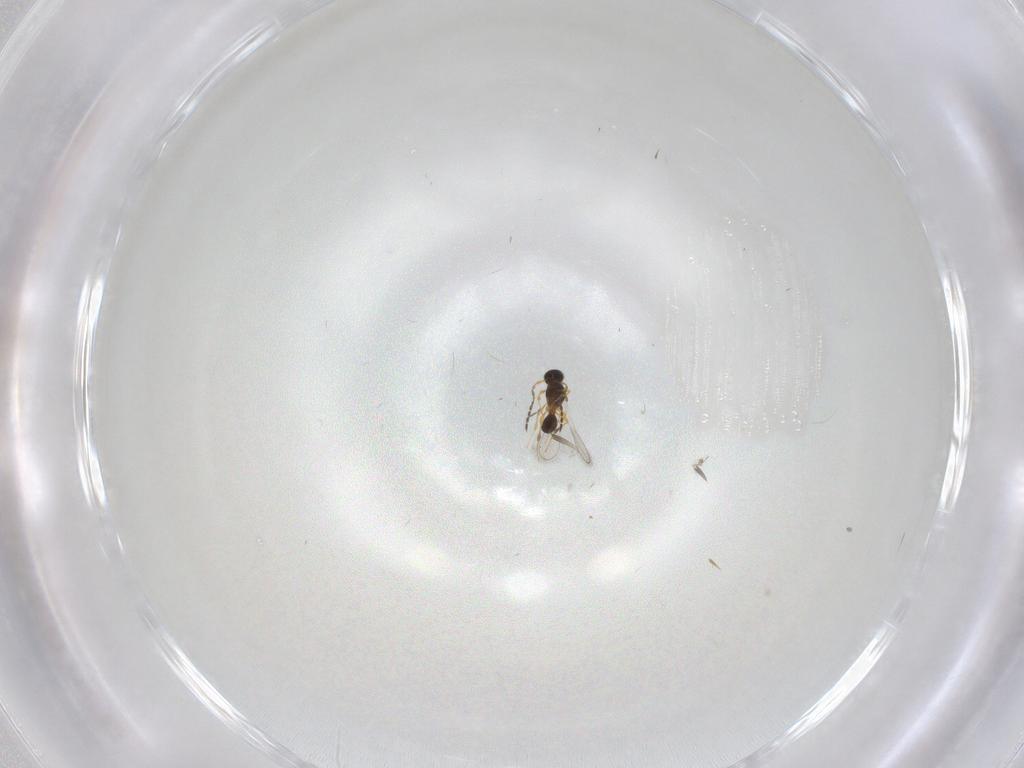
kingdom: Animalia
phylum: Arthropoda
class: Insecta
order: Hymenoptera
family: Platygastridae
